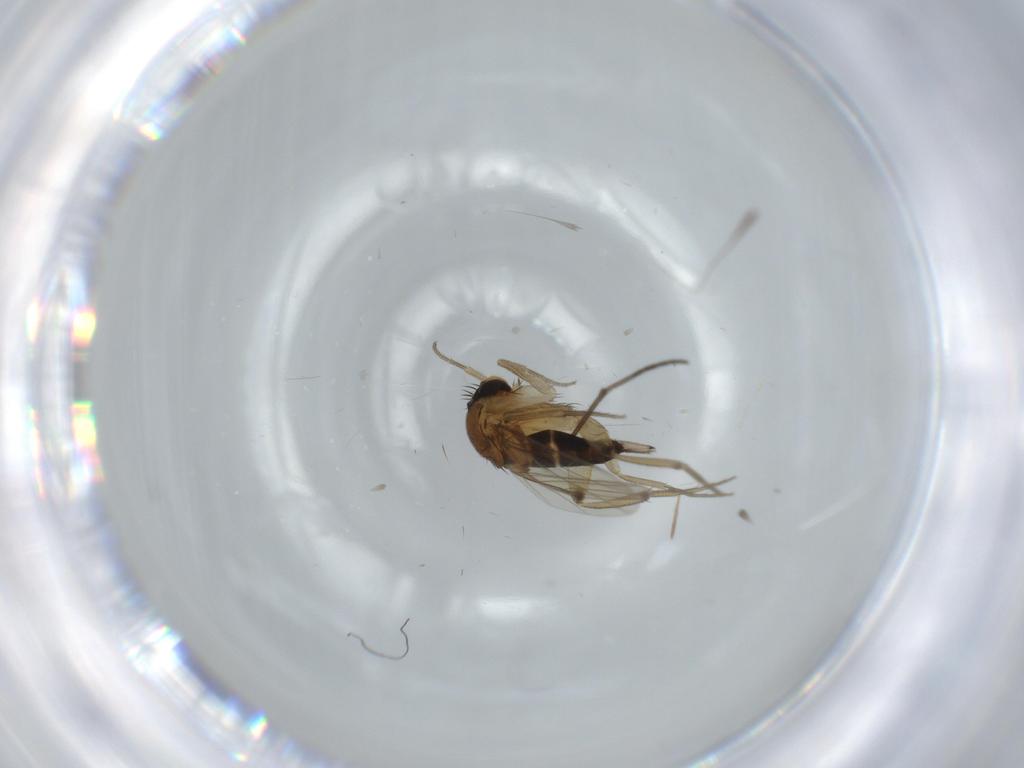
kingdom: Animalia
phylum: Arthropoda
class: Insecta
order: Diptera
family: Cecidomyiidae
